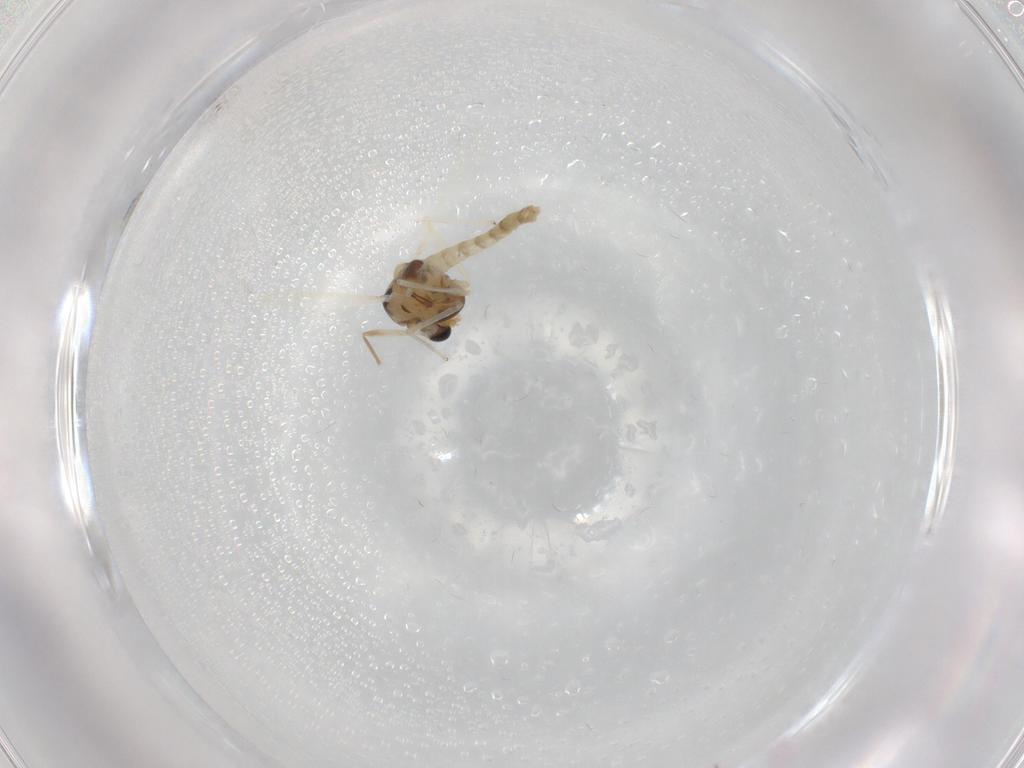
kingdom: Animalia
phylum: Arthropoda
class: Insecta
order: Diptera
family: Chironomidae
